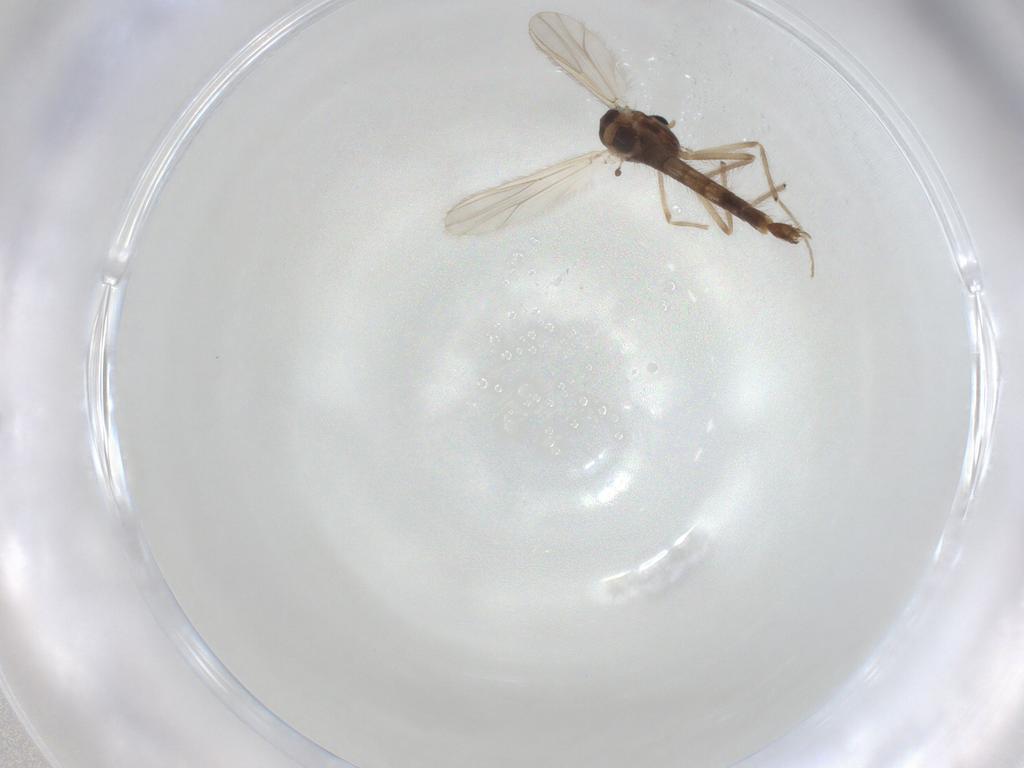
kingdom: Animalia
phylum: Arthropoda
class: Insecta
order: Diptera
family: Chironomidae
